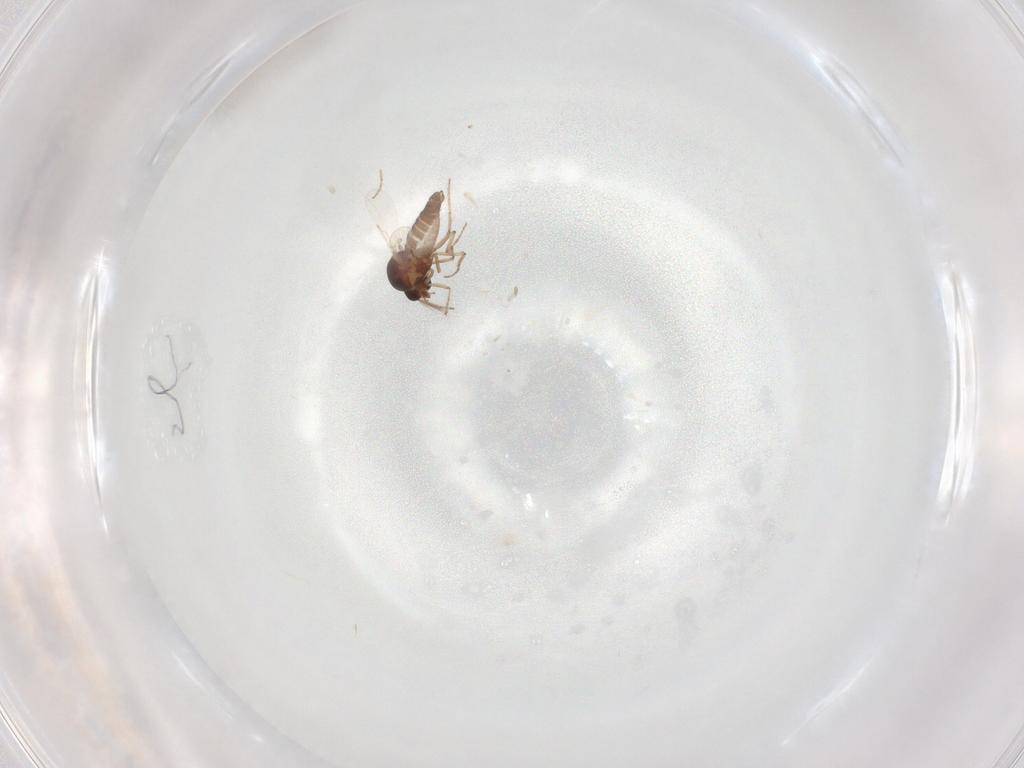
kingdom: Animalia
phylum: Arthropoda
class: Insecta
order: Diptera
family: Ceratopogonidae
